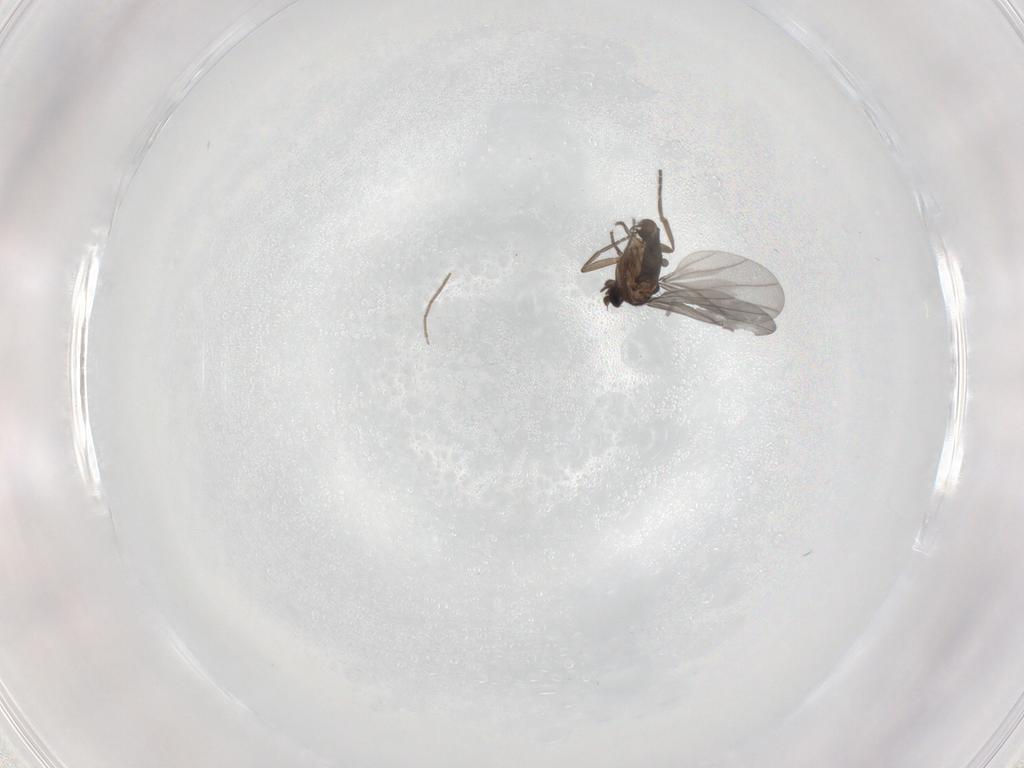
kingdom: Animalia
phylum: Arthropoda
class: Insecta
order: Diptera
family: Phoridae
